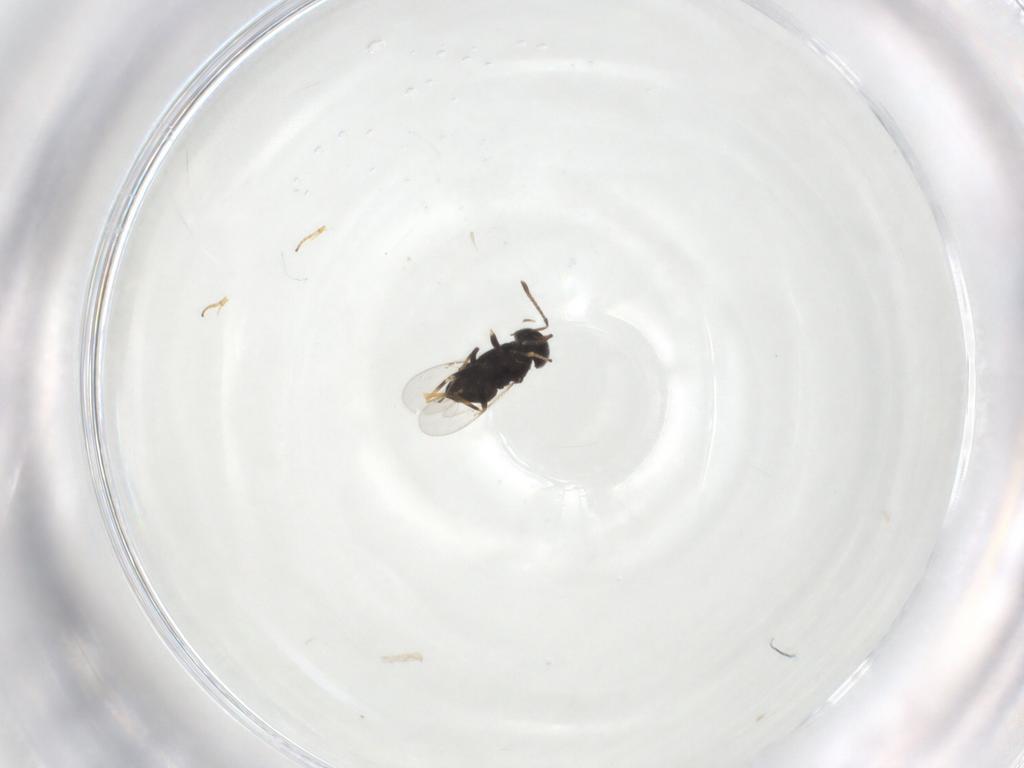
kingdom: Animalia
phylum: Arthropoda
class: Insecta
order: Hymenoptera
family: Encyrtidae
